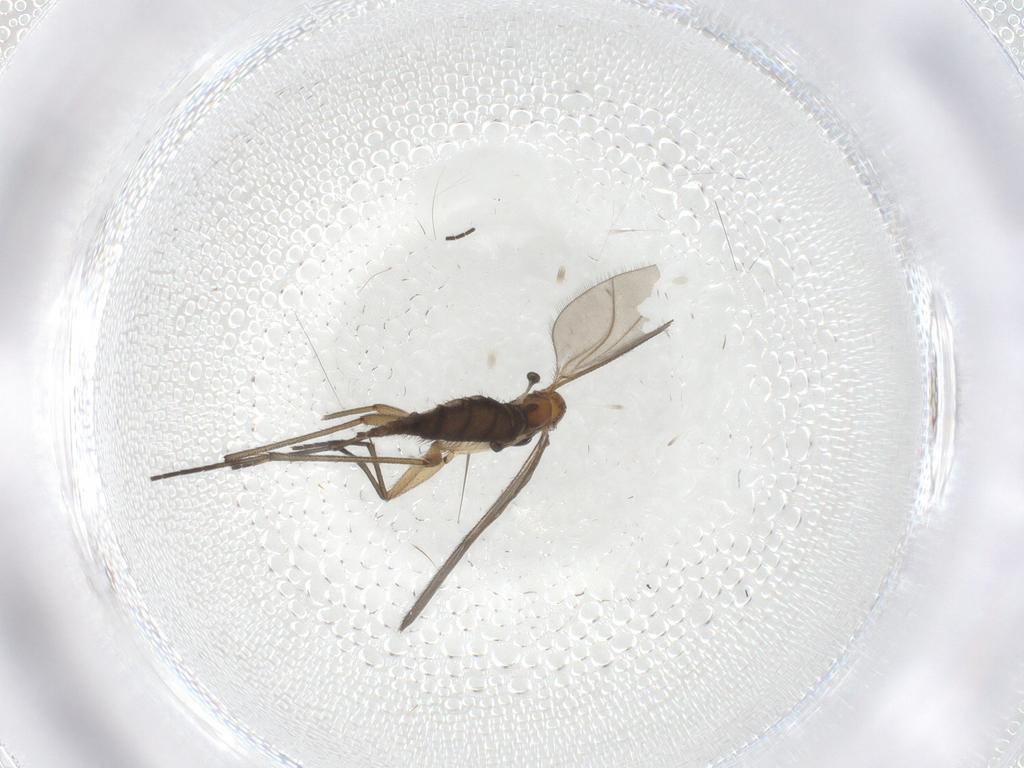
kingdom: Animalia
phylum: Arthropoda
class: Insecta
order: Diptera
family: Sciaridae
